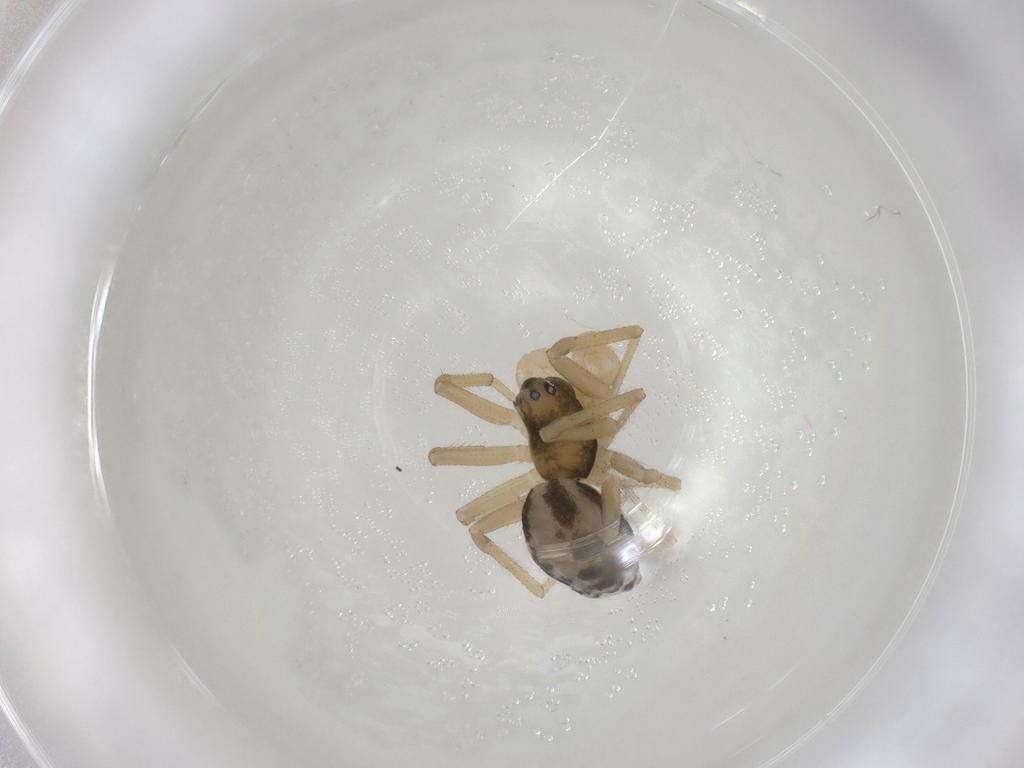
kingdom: Animalia
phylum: Arthropoda
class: Arachnida
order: Araneae
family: Linyphiidae
